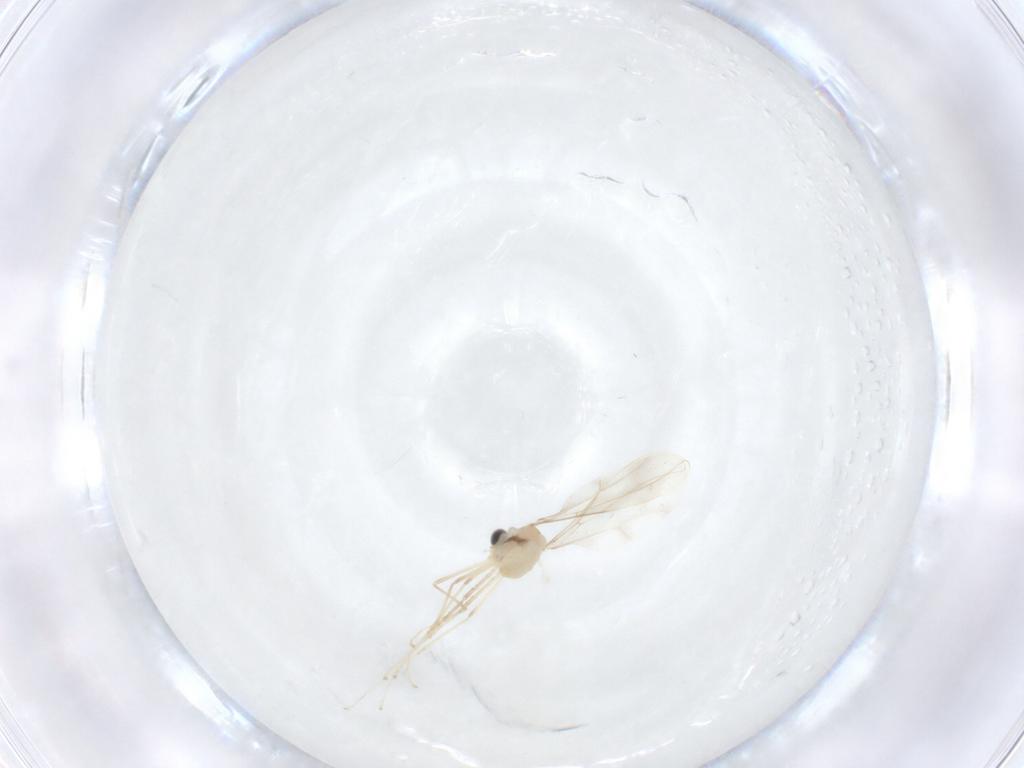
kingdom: Animalia
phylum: Arthropoda
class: Insecta
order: Diptera
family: Cecidomyiidae
